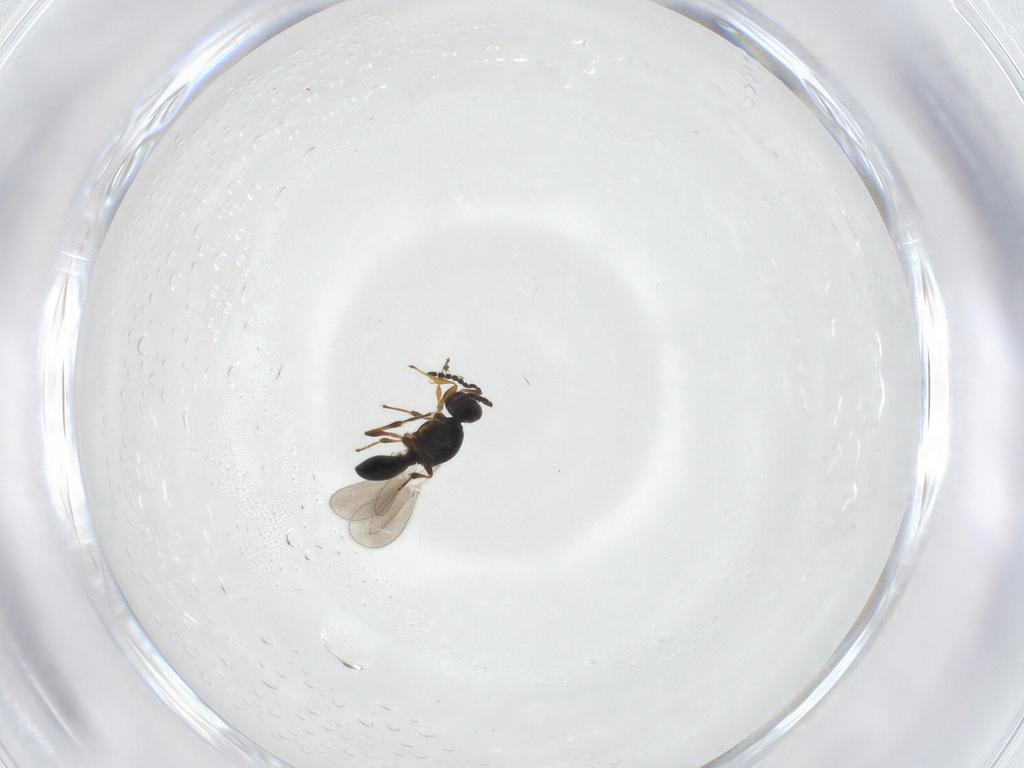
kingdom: Animalia
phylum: Arthropoda
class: Insecta
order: Hymenoptera
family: Platygastridae
